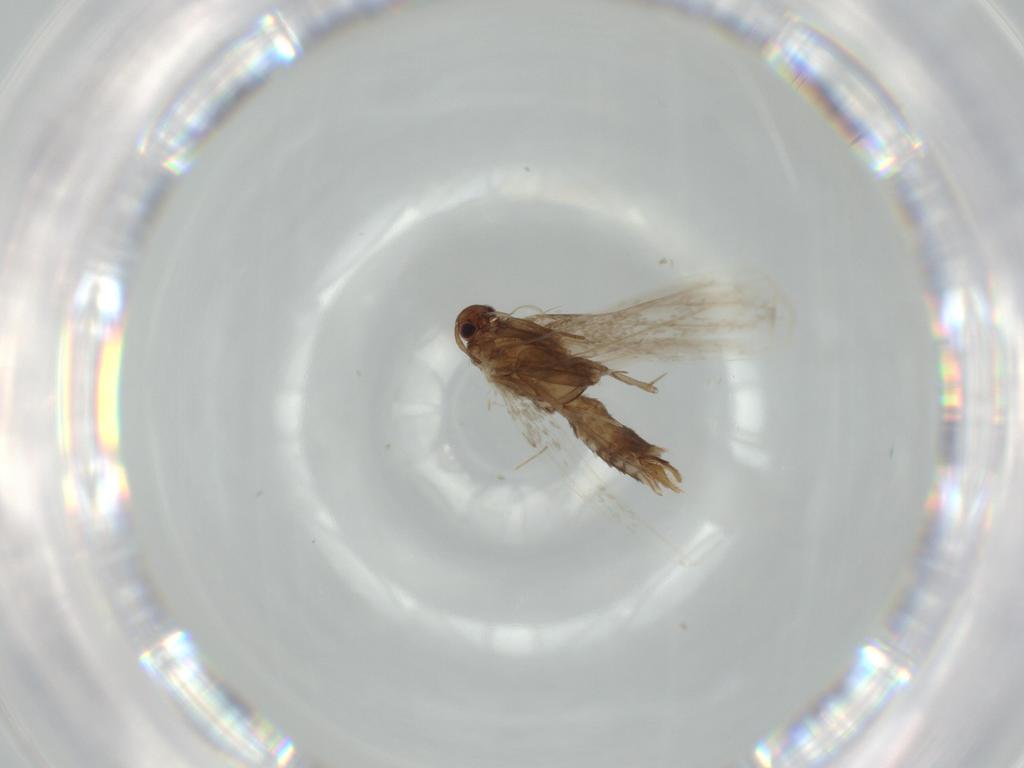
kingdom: Animalia
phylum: Arthropoda
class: Insecta
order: Lepidoptera
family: Gracillariidae
